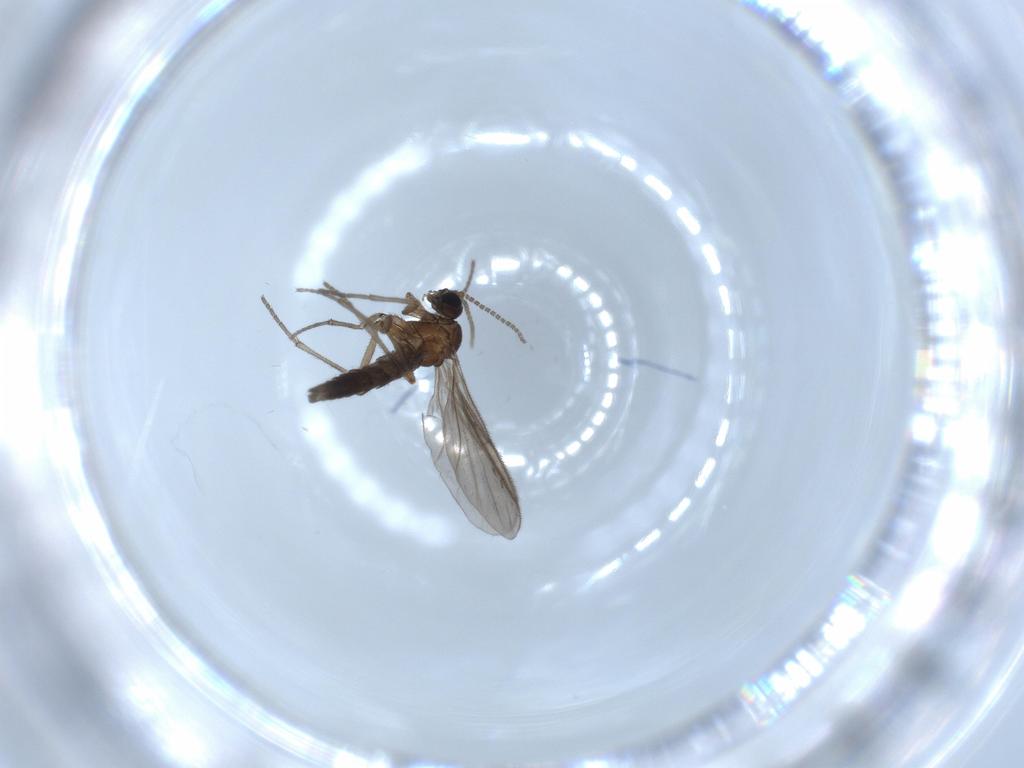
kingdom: Animalia
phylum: Arthropoda
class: Insecta
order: Diptera
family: Sciaridae
